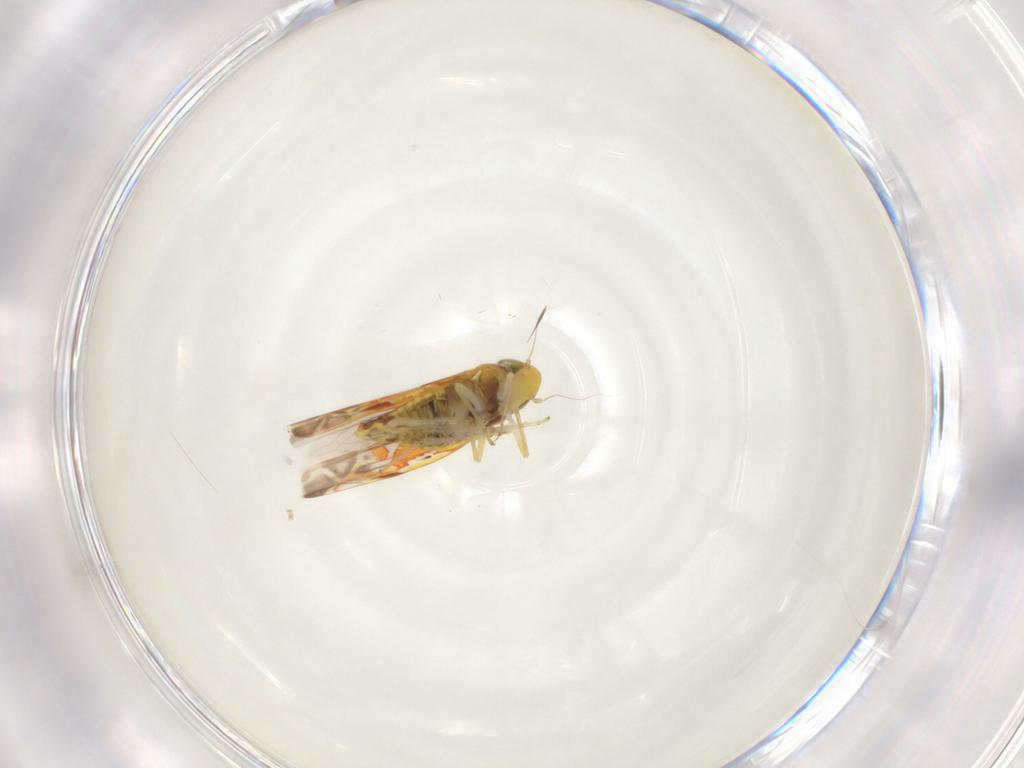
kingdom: Animalia
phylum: Arthropoda
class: Insecta
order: Hemiptera
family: Cicadellidae
